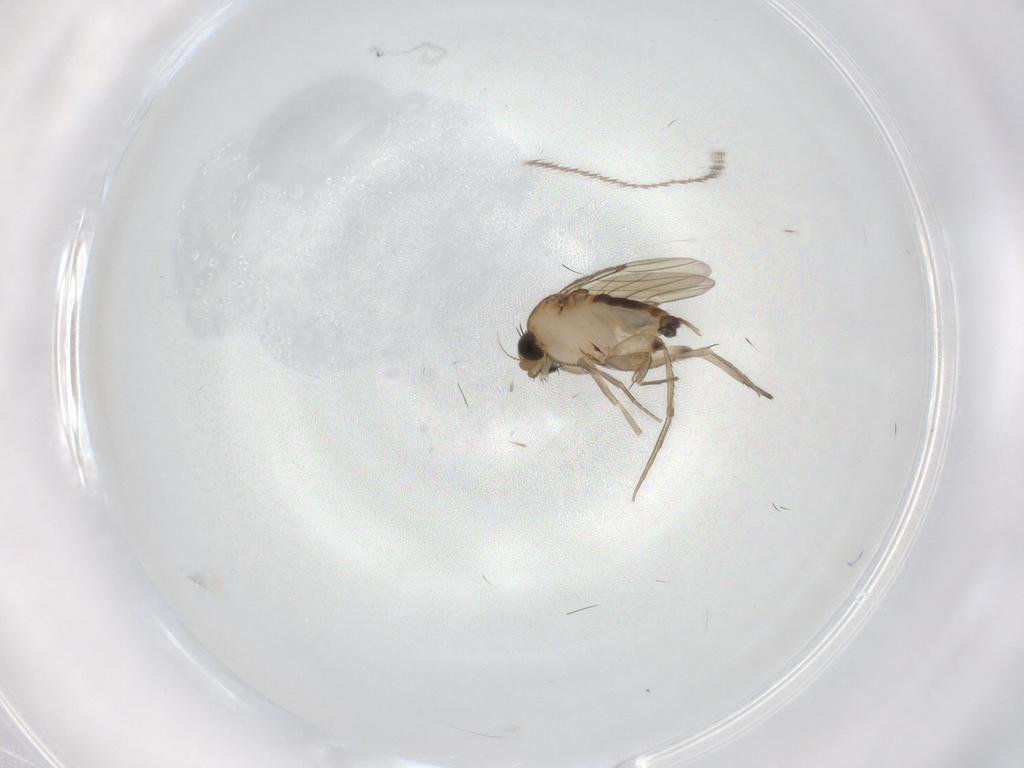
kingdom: Animalia
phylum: Arthropoda
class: Insecta
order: Diptera
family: Phoridae
